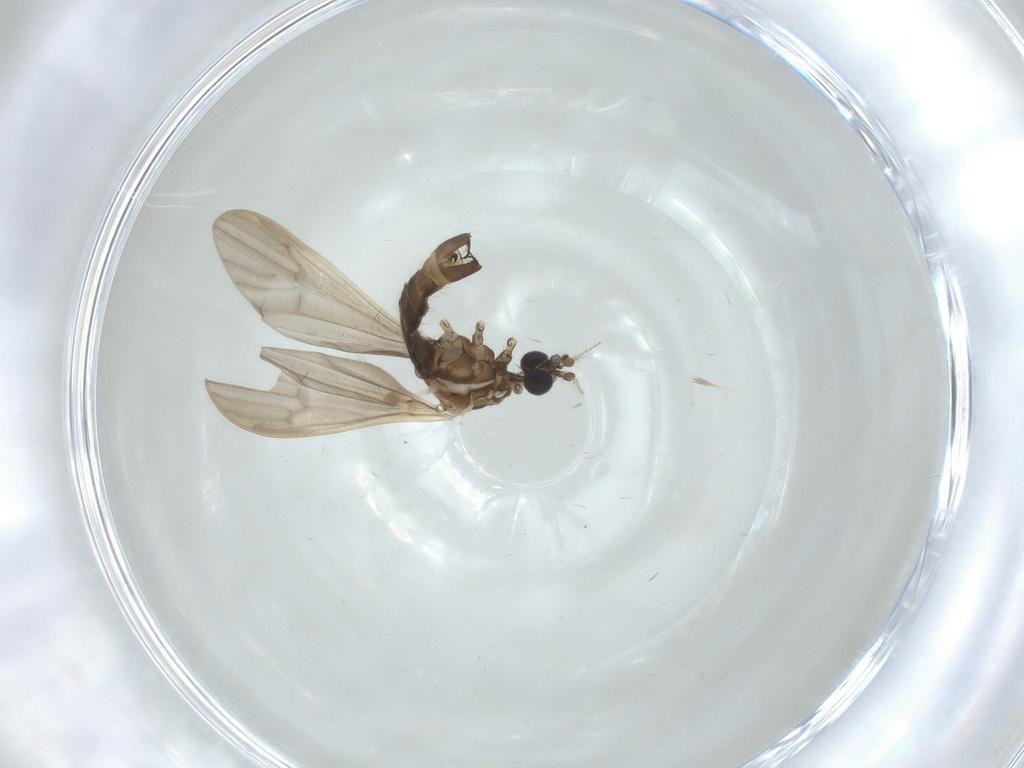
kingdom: Animalia
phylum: Arthropoda
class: Insecta
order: Diptera
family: Limoniidae
